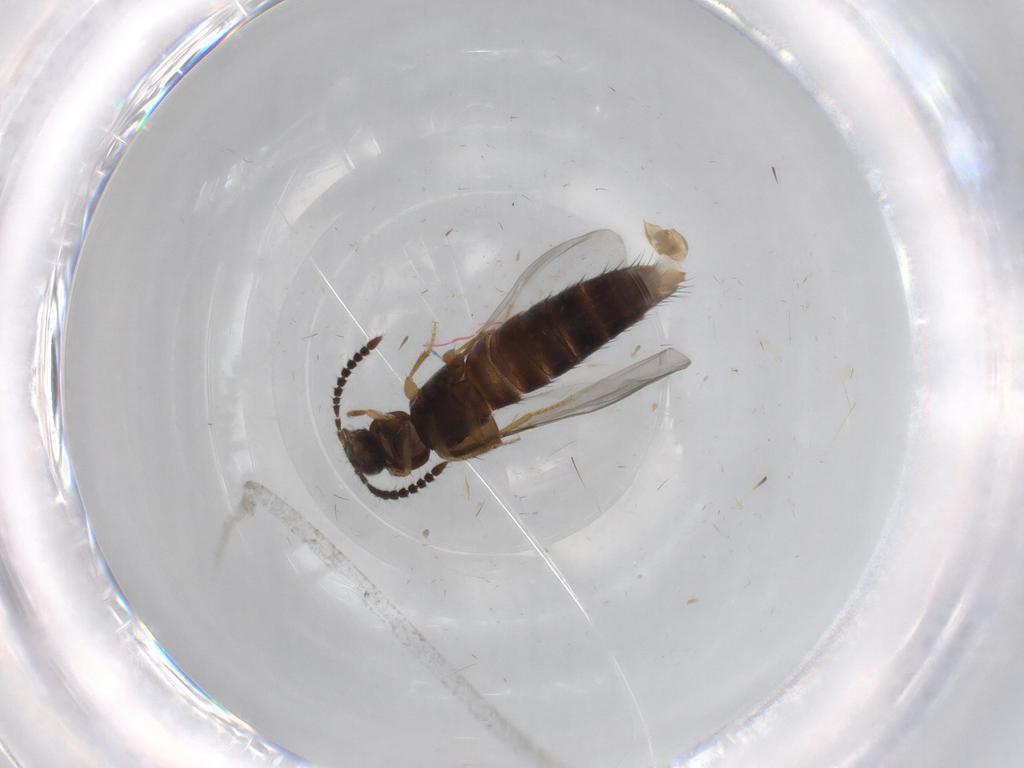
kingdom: Animalia
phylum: Arthropoda
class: Insecta
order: Coleoptera
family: Staphylinidae
